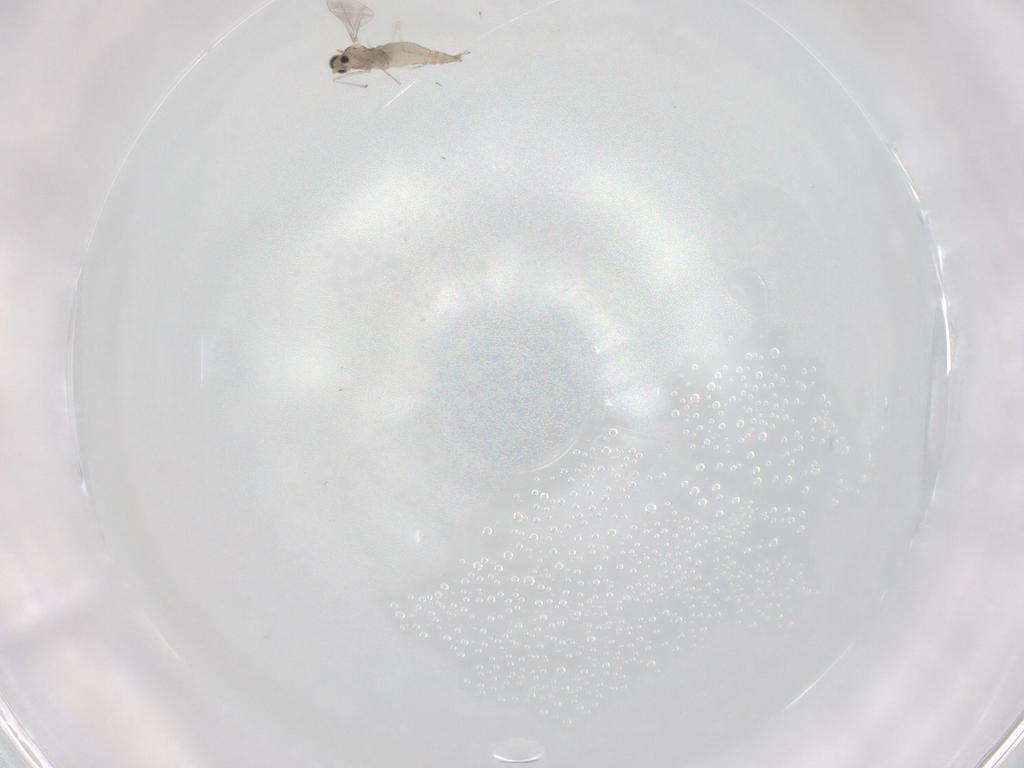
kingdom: Animalia
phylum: Arthropoda
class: Insecta
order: Diptera
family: Cecidomyiidae
